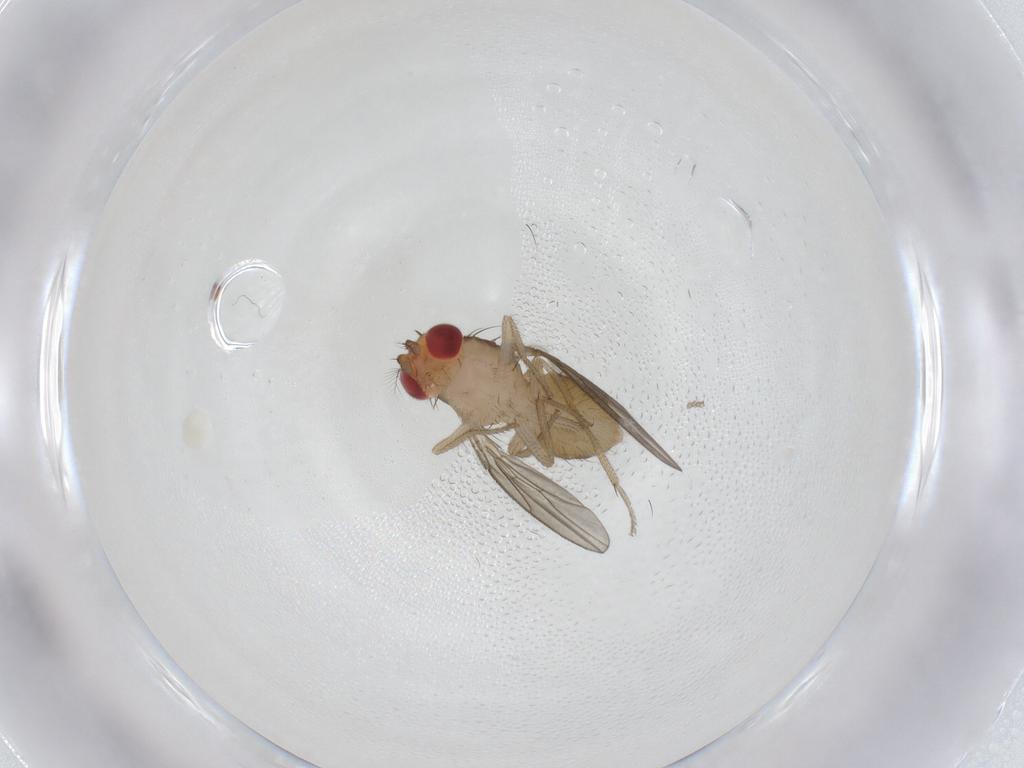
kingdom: Animalia
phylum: Arthropoda
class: Insecta
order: Diptera
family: Drosophilidae
